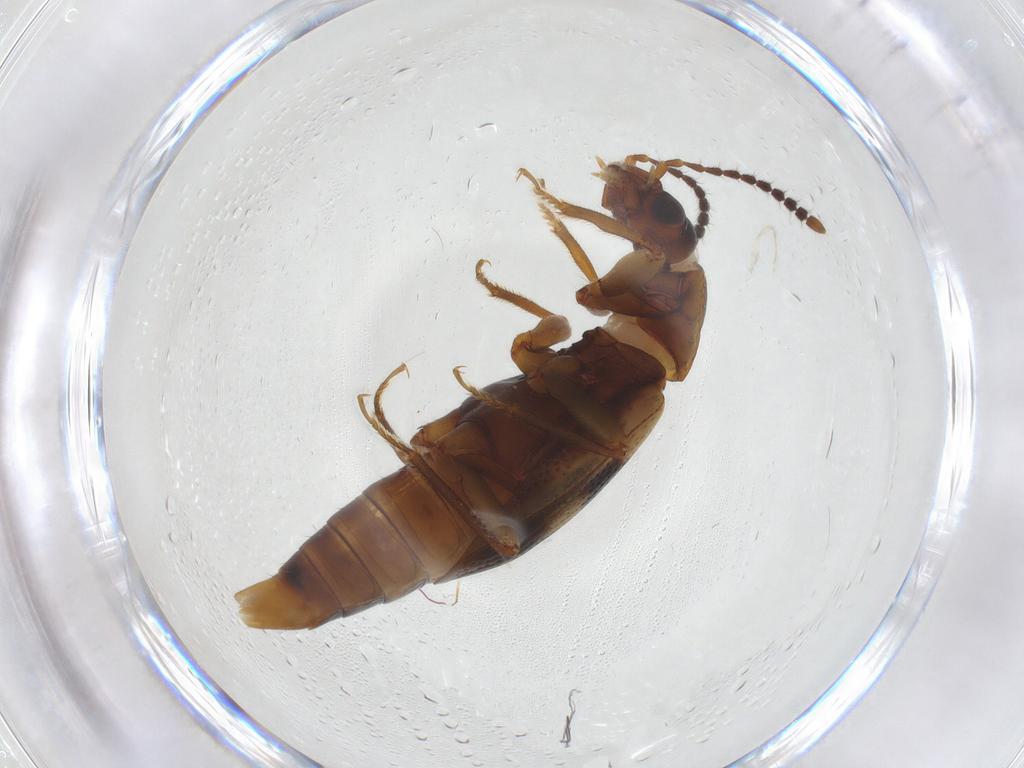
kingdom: Animalia
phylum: Arthropoda
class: Insecta
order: Coleoptera
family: Staphylinidae
